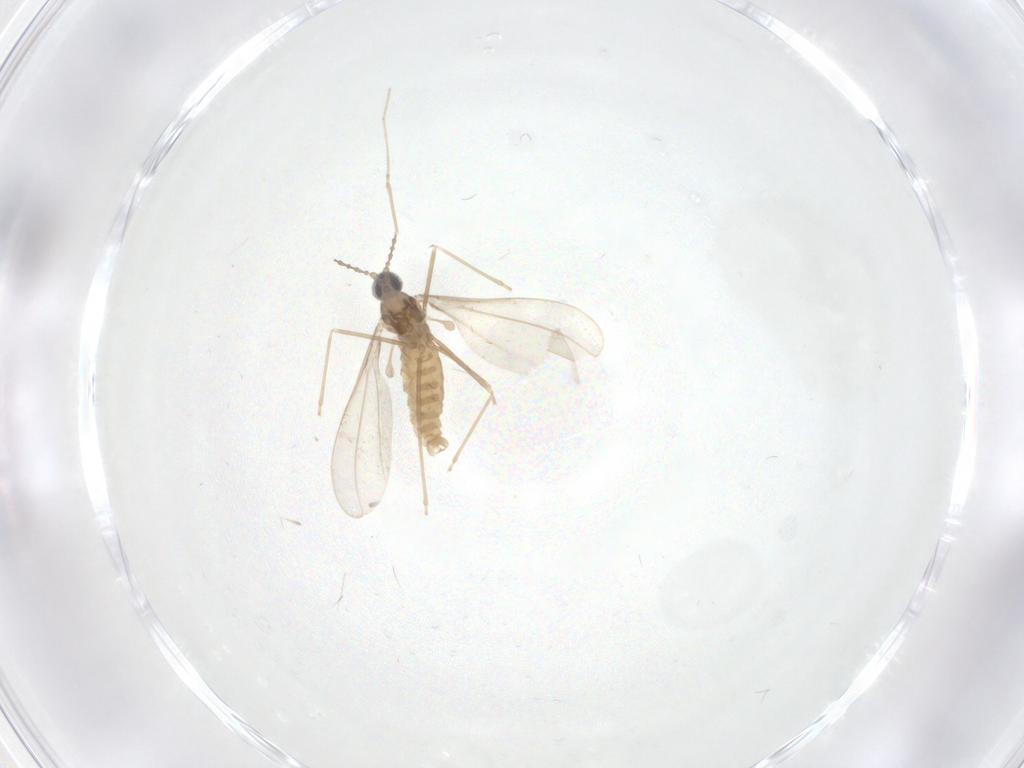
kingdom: Animalia
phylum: Arthropoda
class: Insecta
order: Diptera
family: Cecidomyiidae
